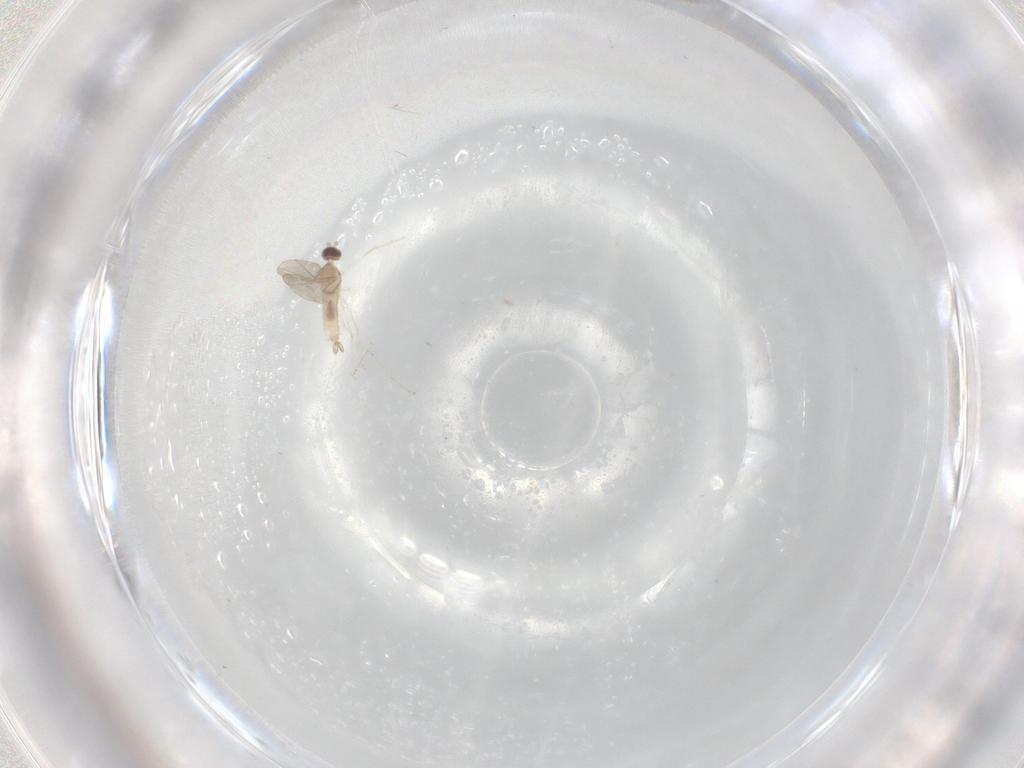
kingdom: Animalia
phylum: Arthropoda
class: Insecta
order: Diptera
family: Cecidomyiidae
